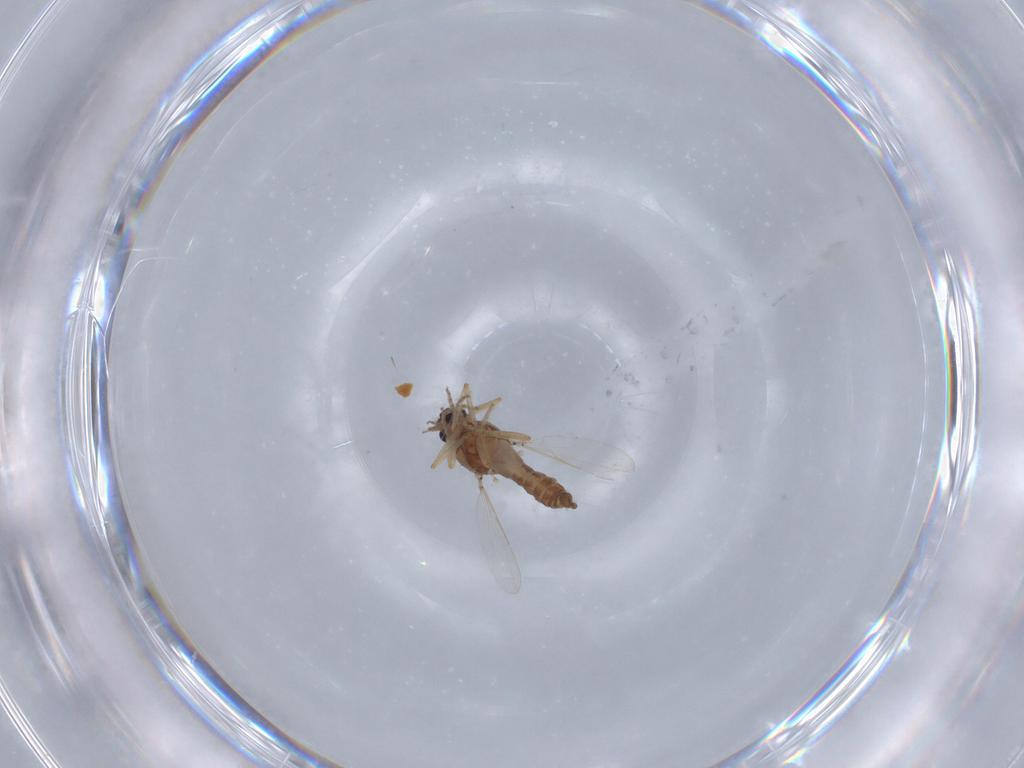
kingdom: Animalia
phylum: Arthropoda
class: Insecta
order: Diptera
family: Ceratopogonidae
